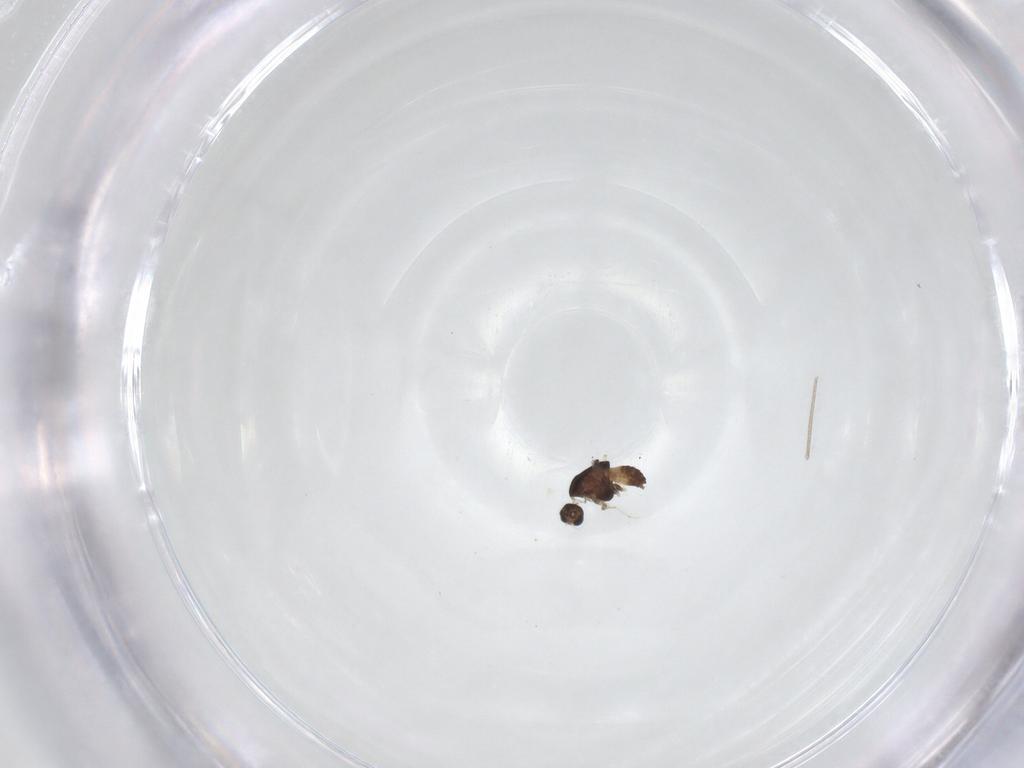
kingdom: Animalia
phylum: Arthropoda
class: Insecta
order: Diptera
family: Chironomidae
